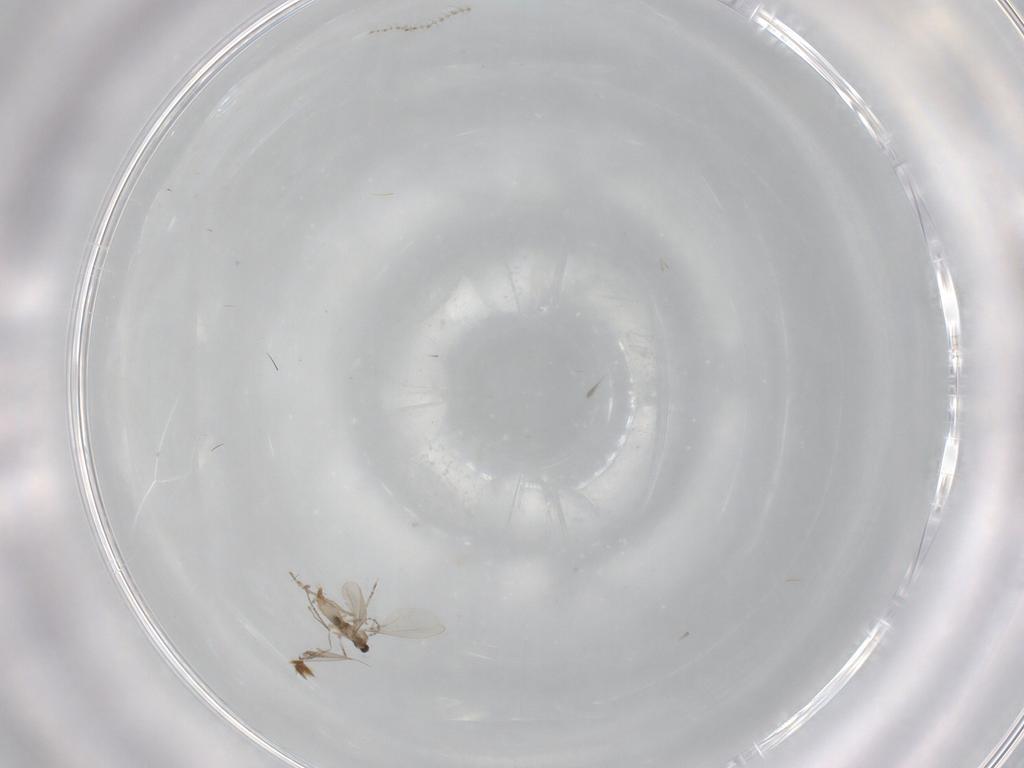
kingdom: Animalia
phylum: Arthropoda
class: Insecta
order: Diptera
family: Cecidomyiidae
